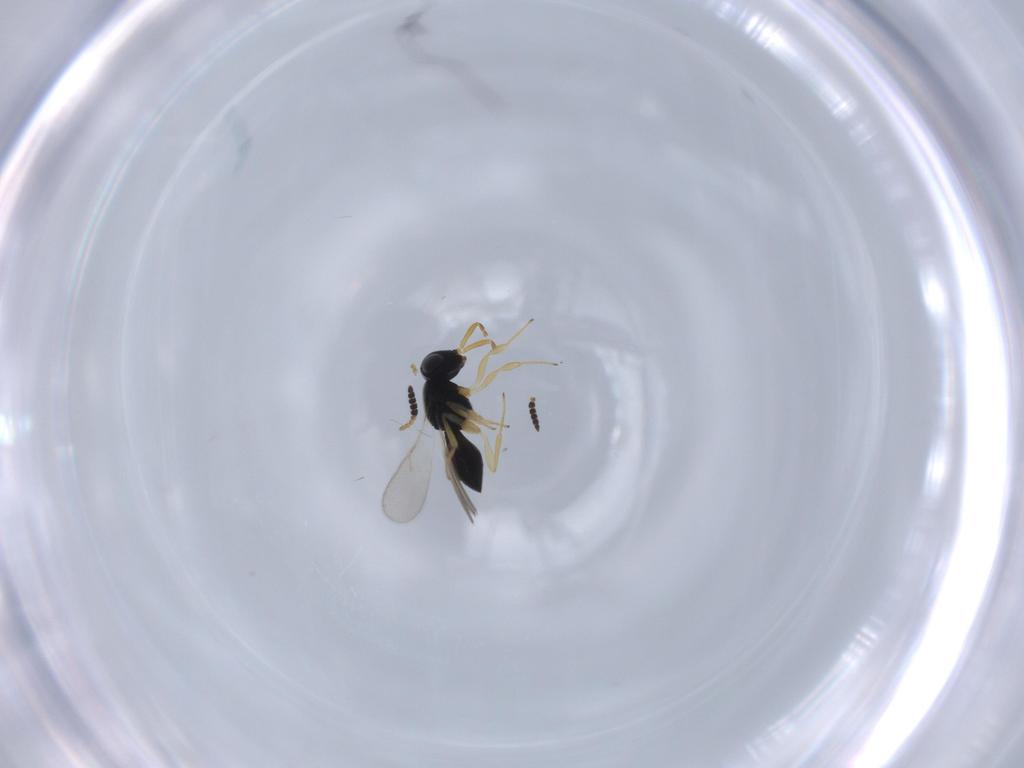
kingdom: Animalia
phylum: Arthropoda
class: Insecta
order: Hymenoptera
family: Scelionidae
